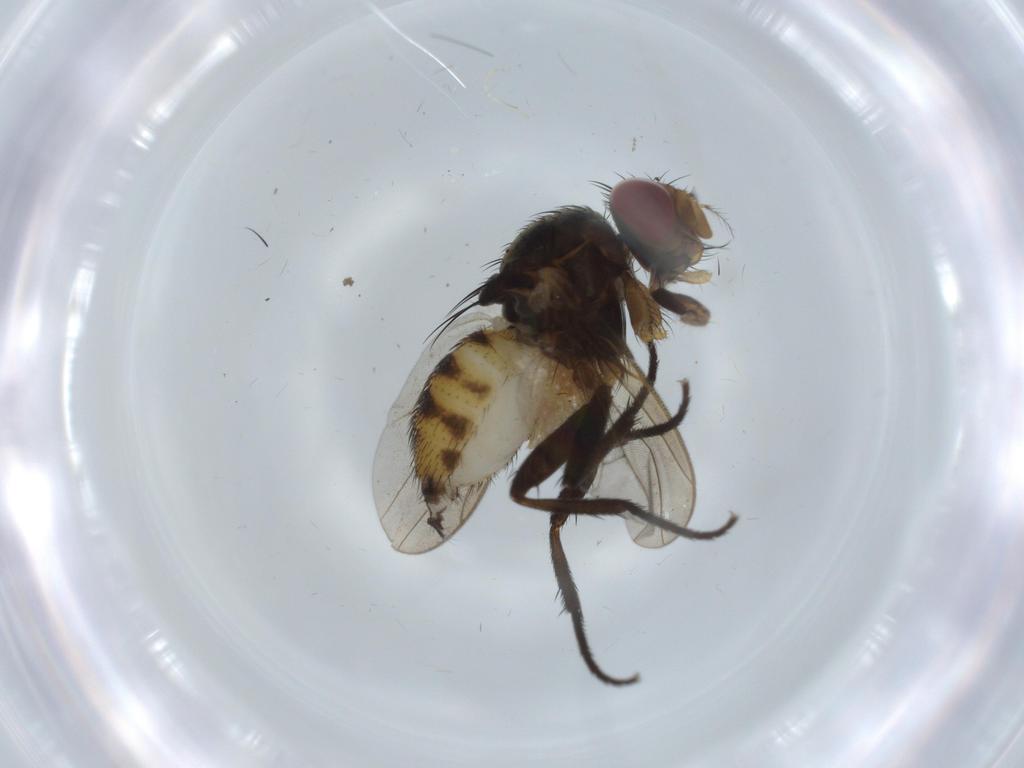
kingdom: Animalia
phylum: Arthropoda
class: Insecta
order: Diptera
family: Anthomyiidae
